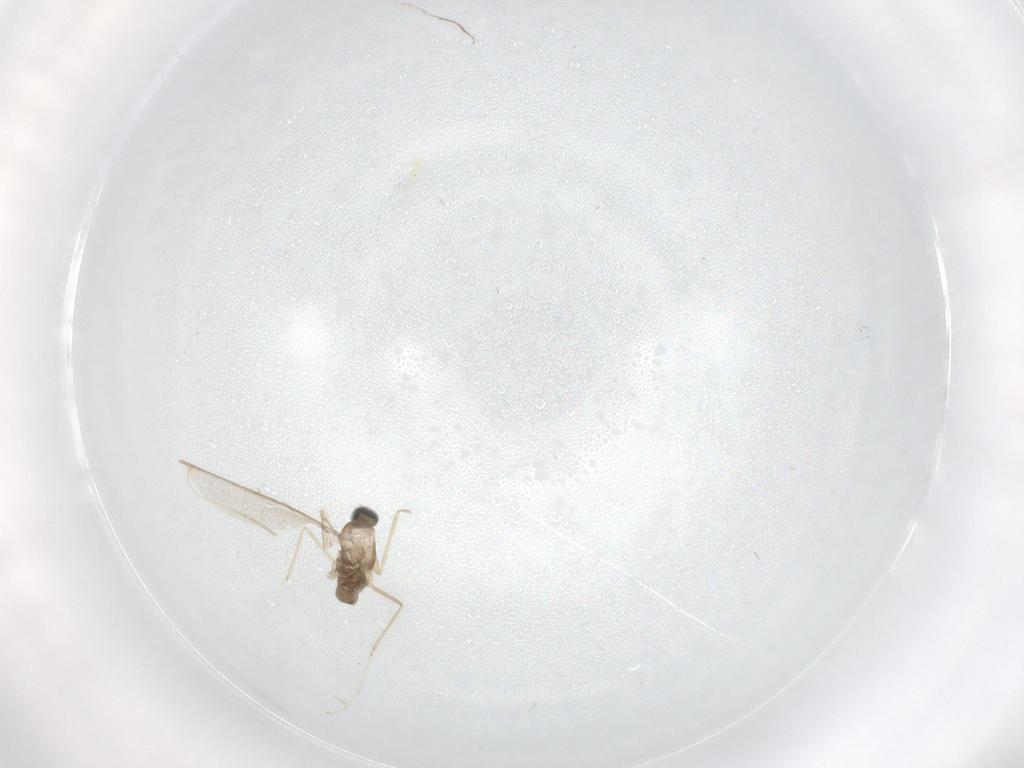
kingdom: Animalia
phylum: Arthropoda
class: Insecta
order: Diptera
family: Cecidomyiidae
